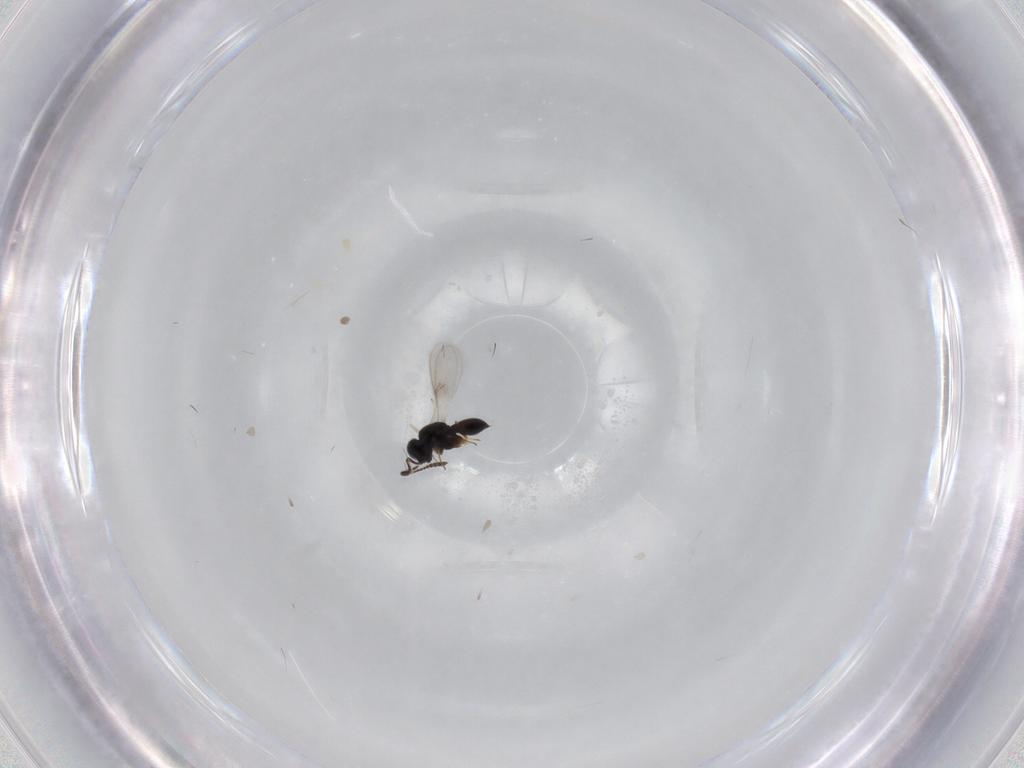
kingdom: Animalia
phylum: Arthropoda
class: Insecta
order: Hymenoptera
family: Scelionidae
